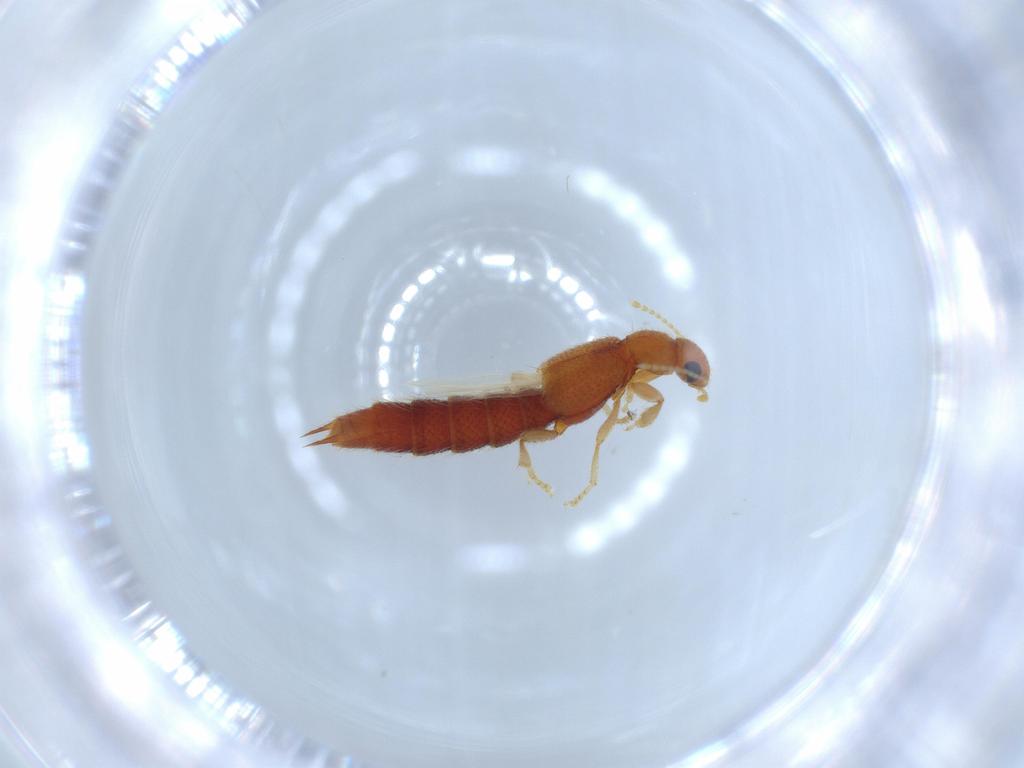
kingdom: Animalia
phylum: Arthropoda
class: Insecta
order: Coleoptera
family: Staphylinidae
